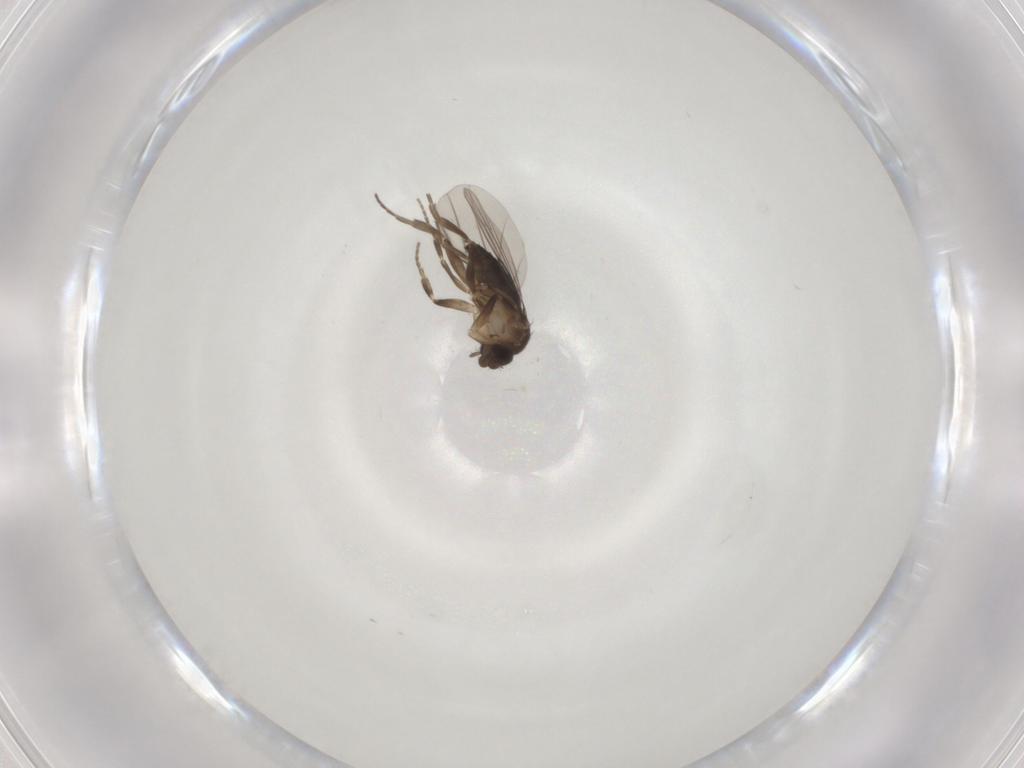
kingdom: Animalia
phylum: Arthropoda
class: Insecta
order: Diptera
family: Phoridae
